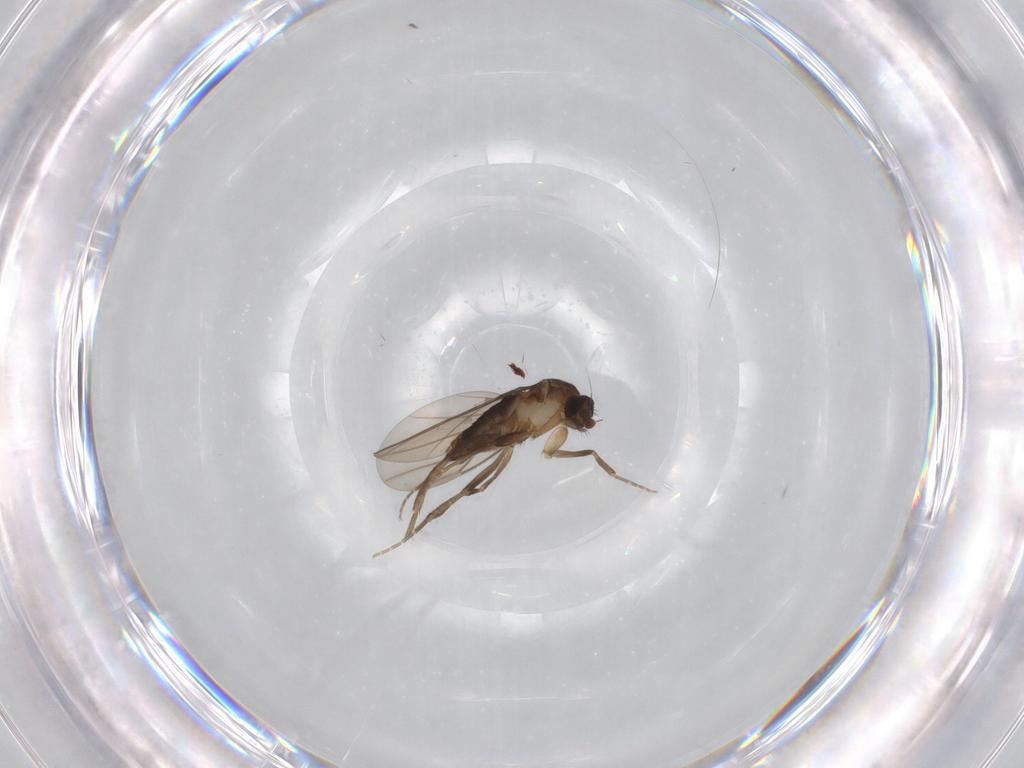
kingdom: Animalia
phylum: Arthropoda
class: Insecta
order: Diptera
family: Phoridae
